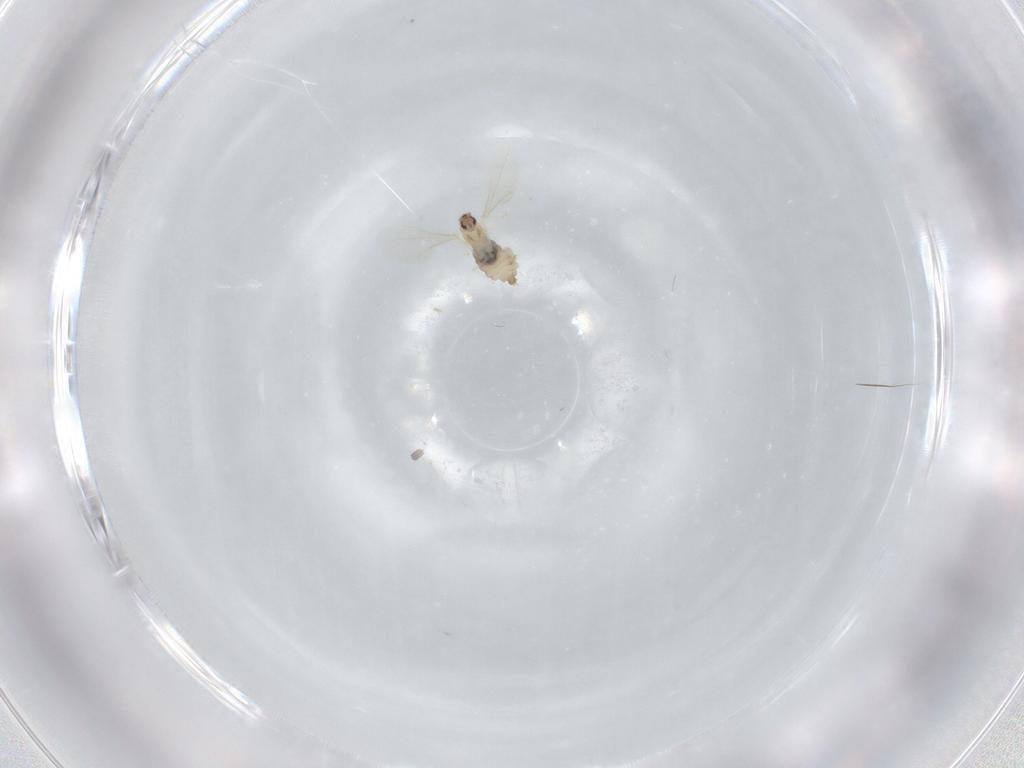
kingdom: Animalia
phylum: Arthropoda
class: Insecta
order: Diptera
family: Cecidomyiidae
